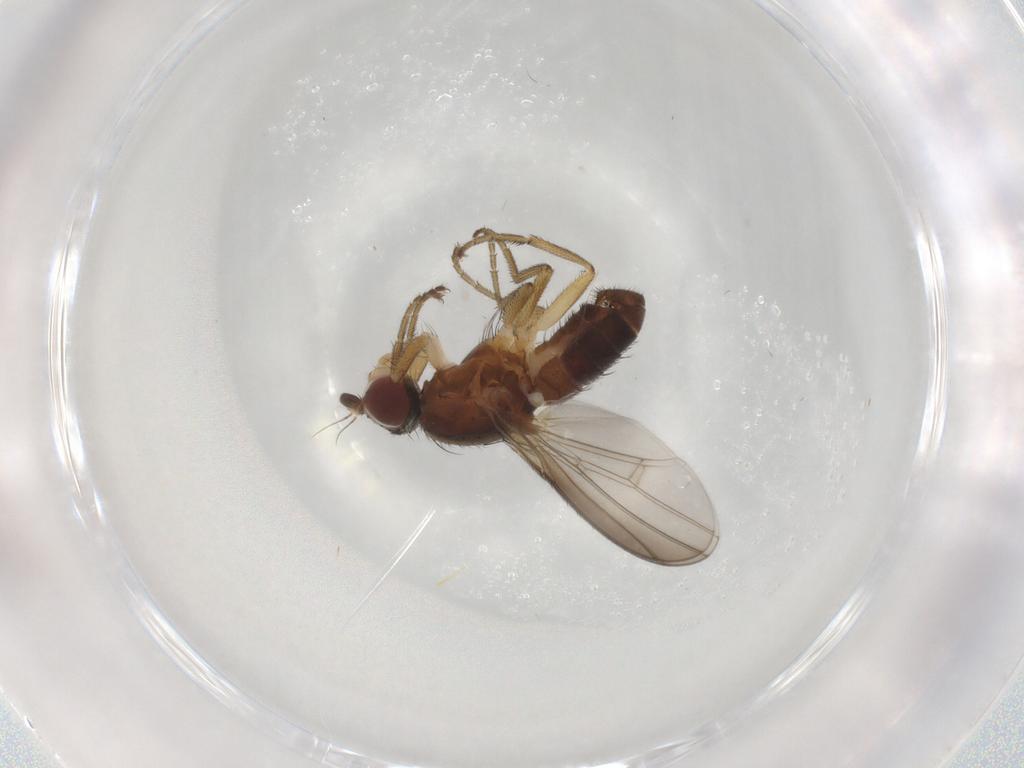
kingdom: Animalia
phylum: Arthropoda
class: Insecta
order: Diptera
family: Heleomyzidae
